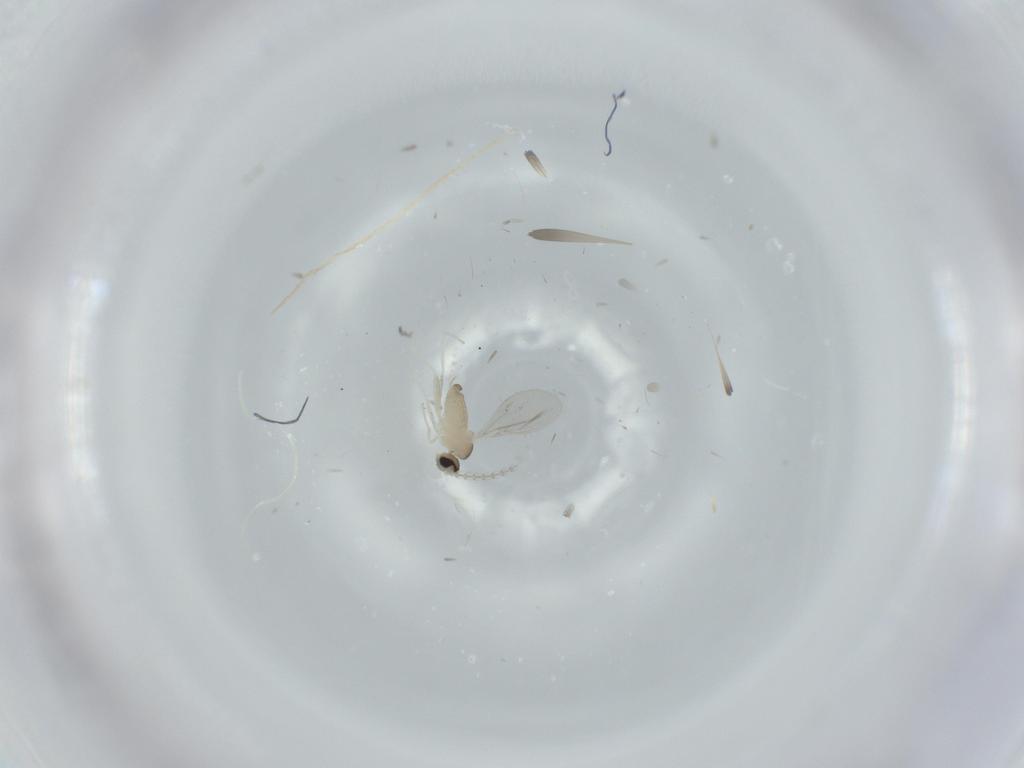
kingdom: Animalia
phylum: Arthropoda
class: Insecta
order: Diptera
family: Cecidomyiidae
